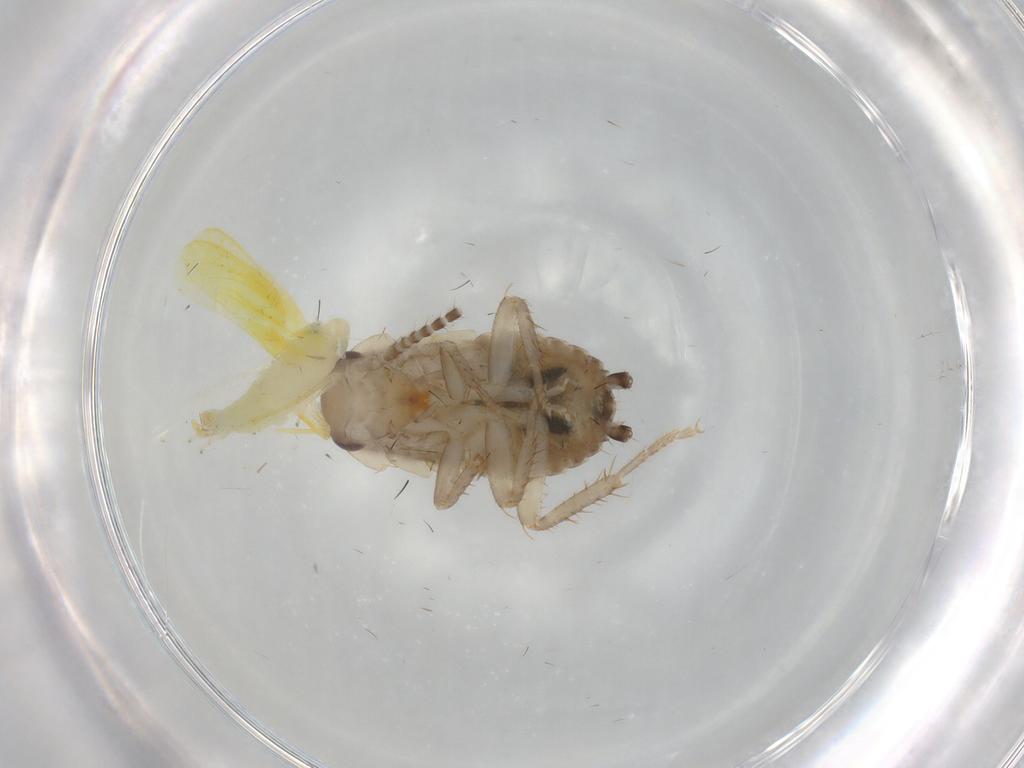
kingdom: Animalia
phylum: Arthropoda
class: Insecta
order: Hemiptera
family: Cicadellidae
